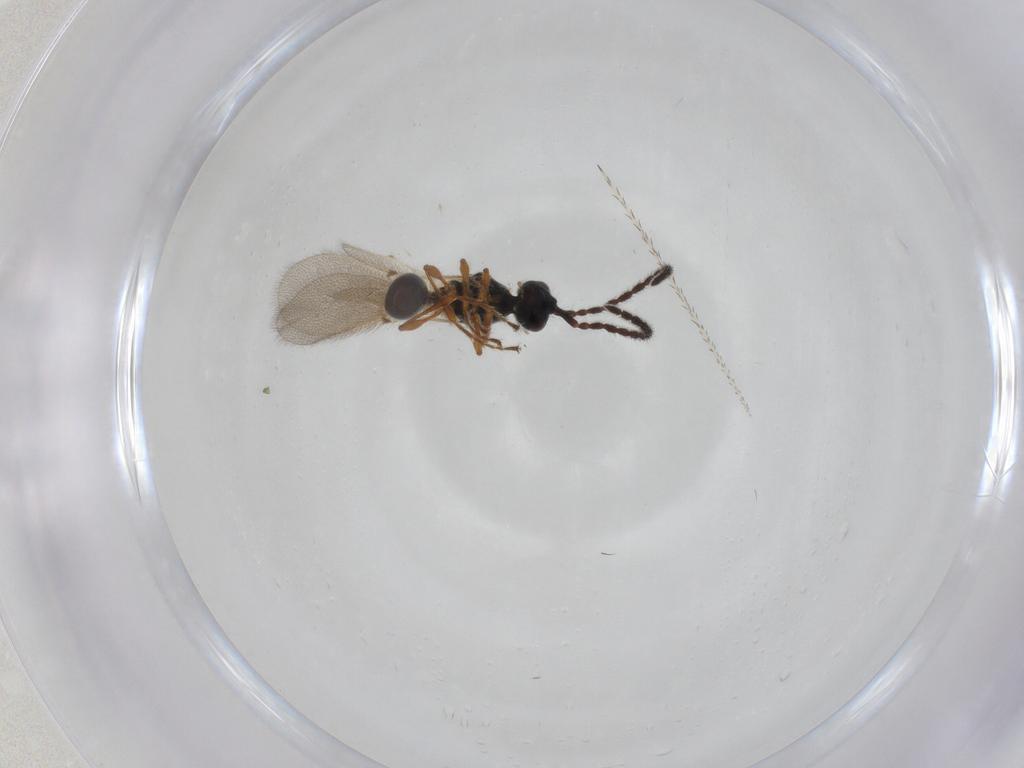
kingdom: Animalia
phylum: Arthropoda
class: Insecta
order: Hymenoptera
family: Diapriidae
